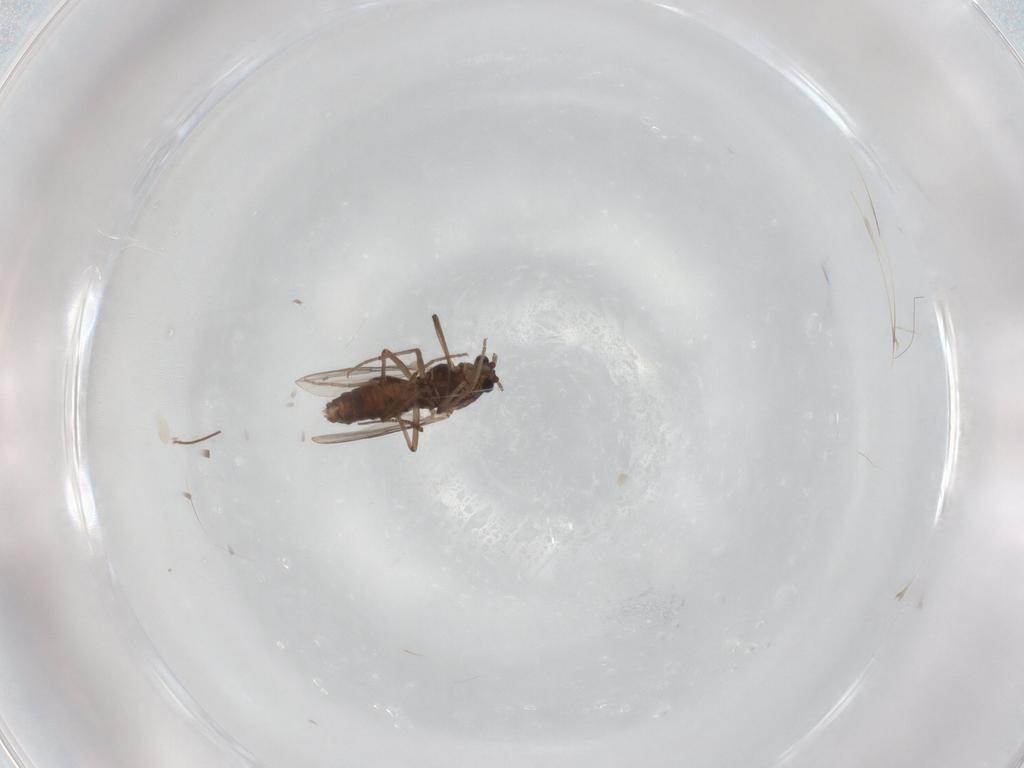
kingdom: Animalia
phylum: Arthropoda
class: Insecta
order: Diptera
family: Chironomidae
